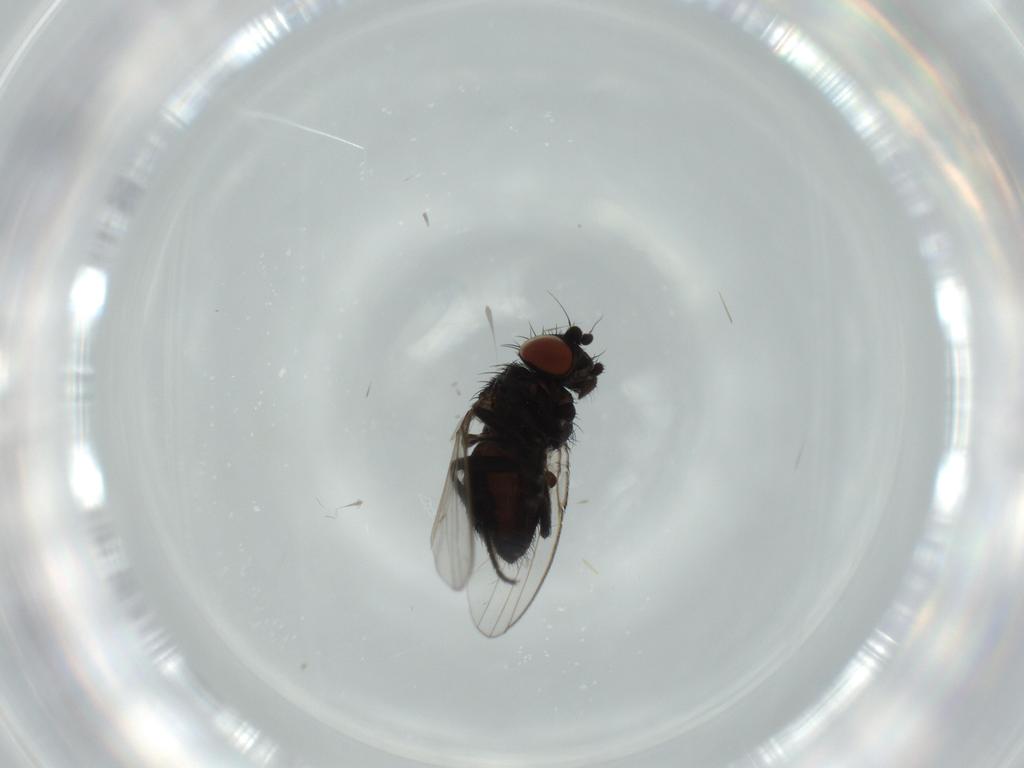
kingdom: Animalia
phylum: Arthropoda
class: Insecta
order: Diptera
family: Milichiidae
